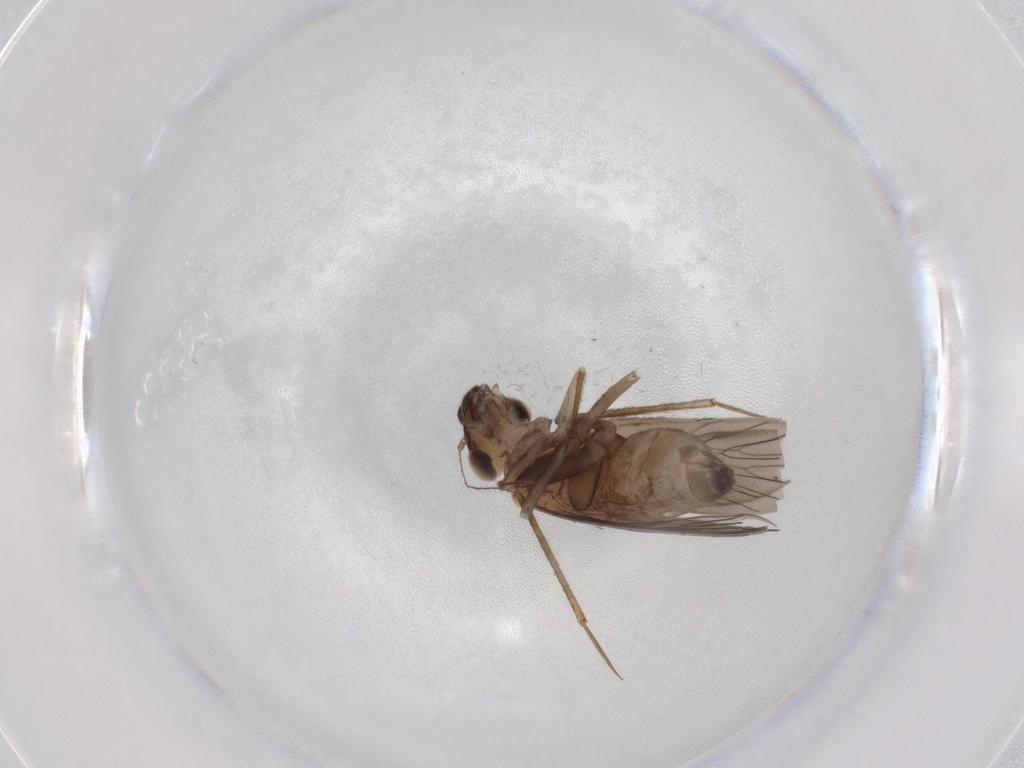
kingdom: Animalia
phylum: Arthropoda
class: Insecta
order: Psocodea
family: Lepidopsocidae
